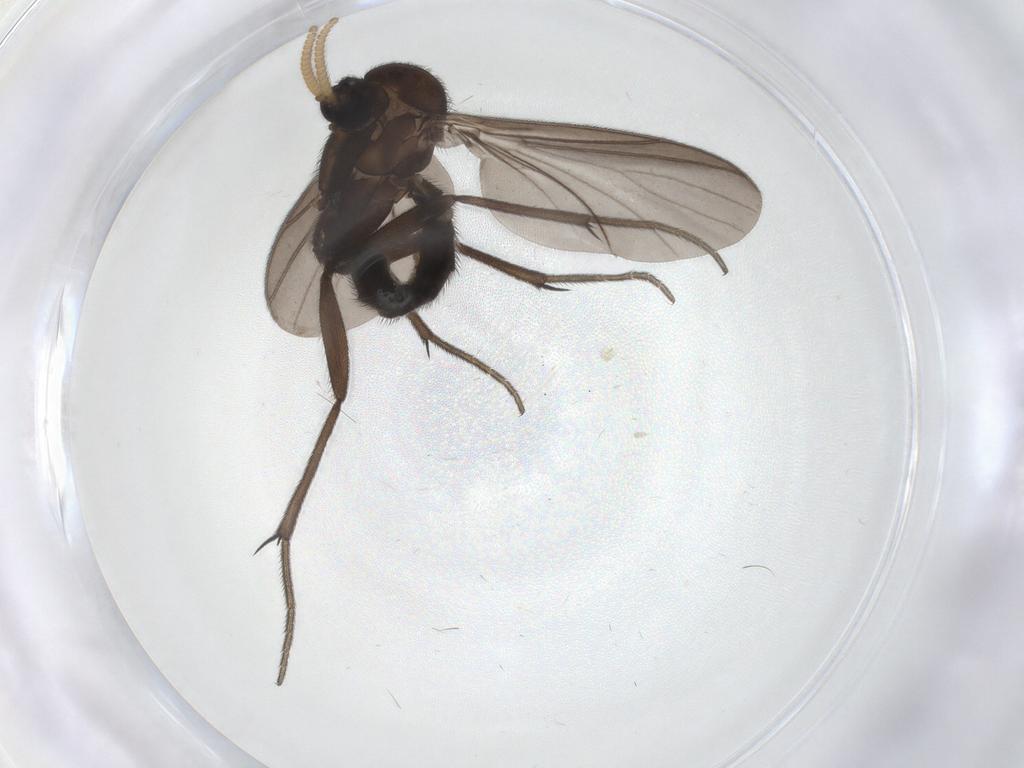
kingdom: Animalia
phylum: Arthropoda
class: Insecta
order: Diptera
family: Mycetophilidae
